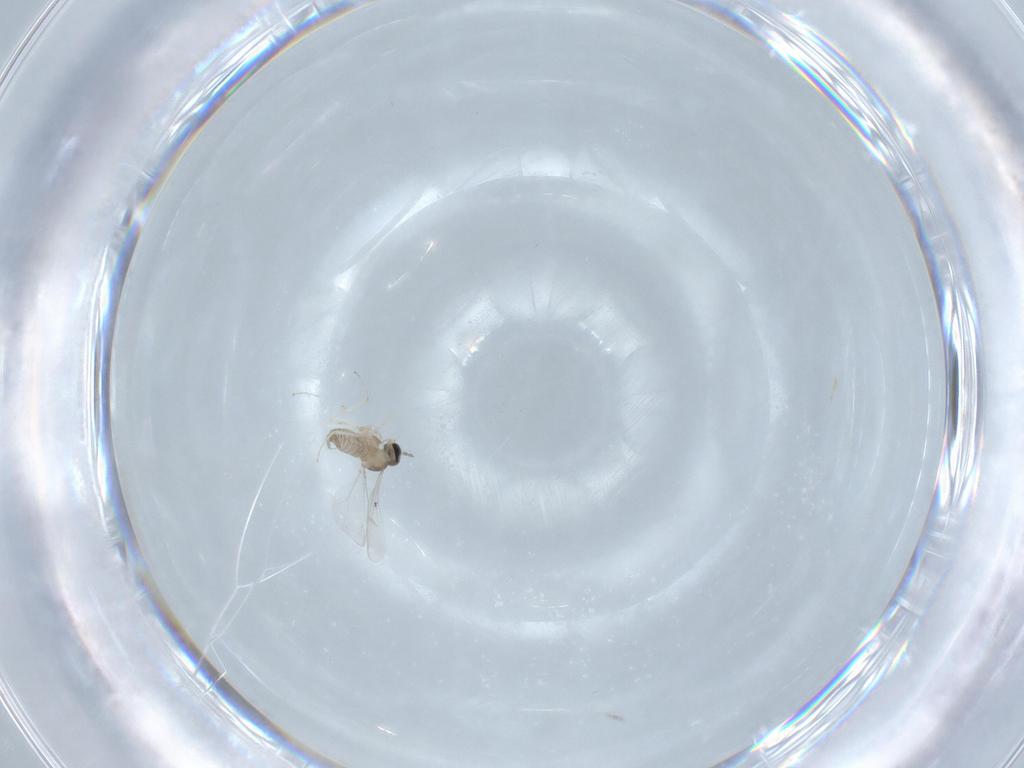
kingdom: Animalia
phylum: Arthropoda
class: Insecta
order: Diptera
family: Cecidomyiidae
